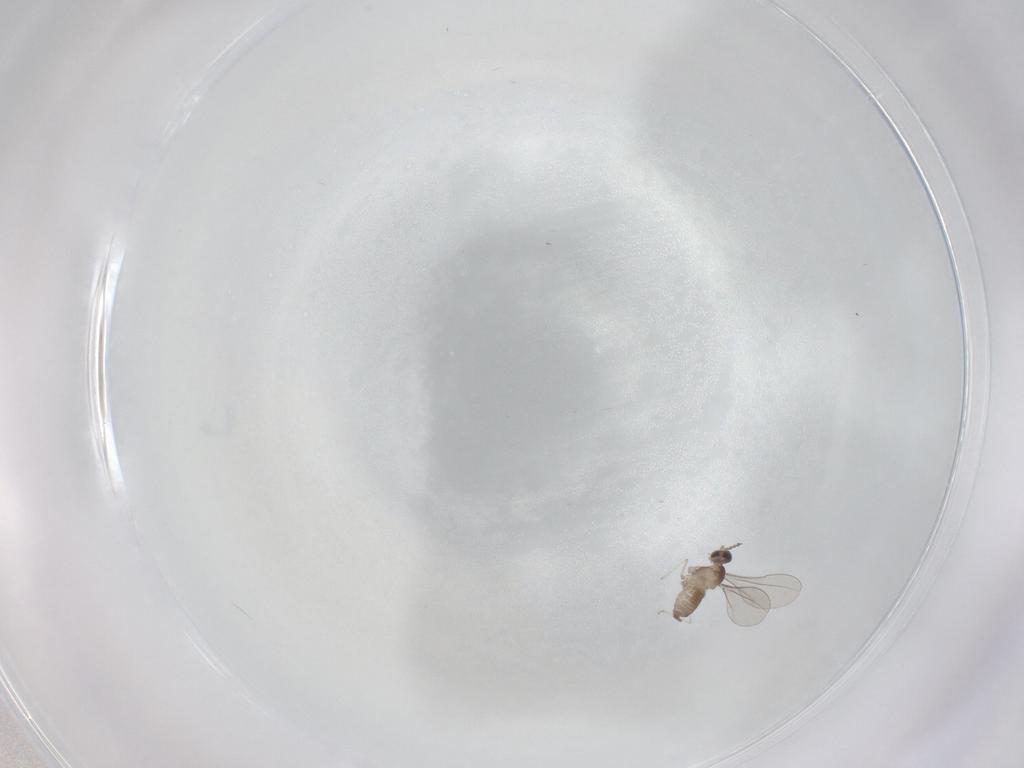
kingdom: Animalia
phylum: Arthropoda
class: Insecta
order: Diptera
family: Cecidomyiidae
